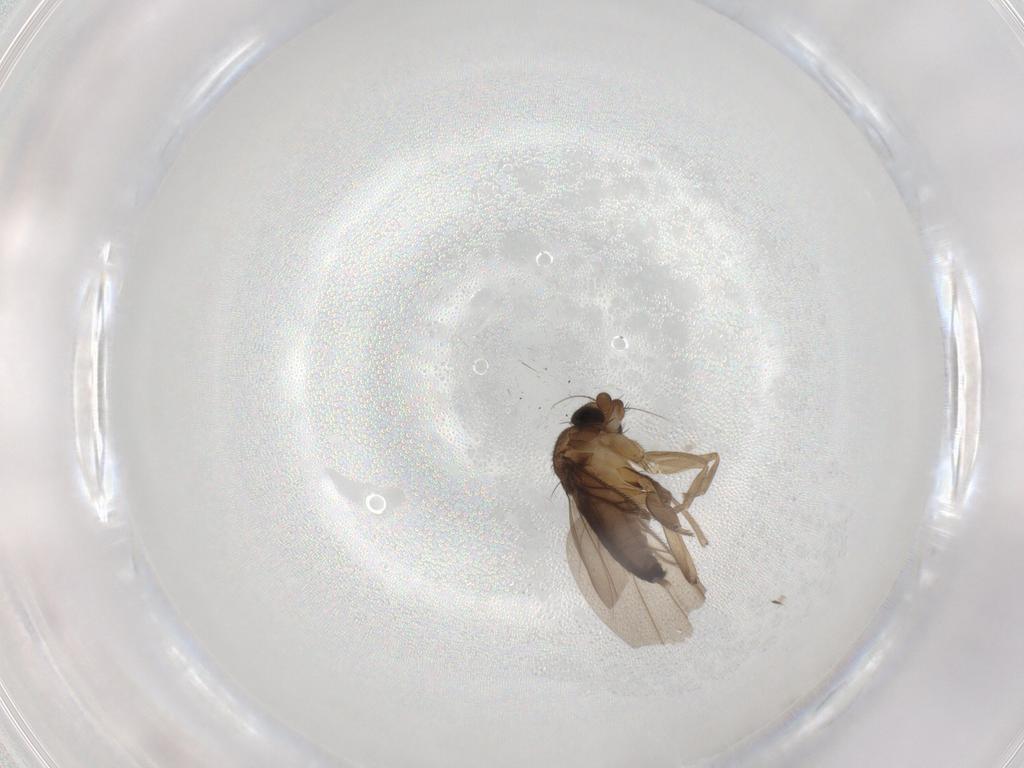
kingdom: Animalia
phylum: Arthropoda
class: Insecta
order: Diptera
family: Phoridae
